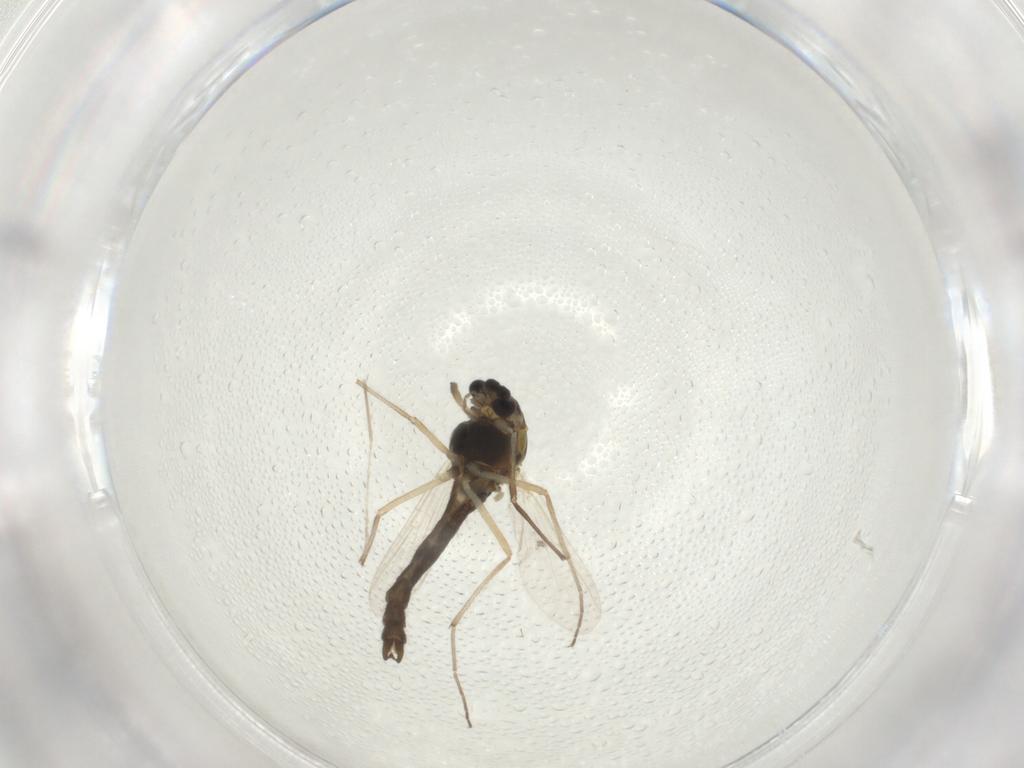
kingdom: Animalia
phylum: Arthropoda
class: Insecta
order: Diptera
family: Chironomidae
